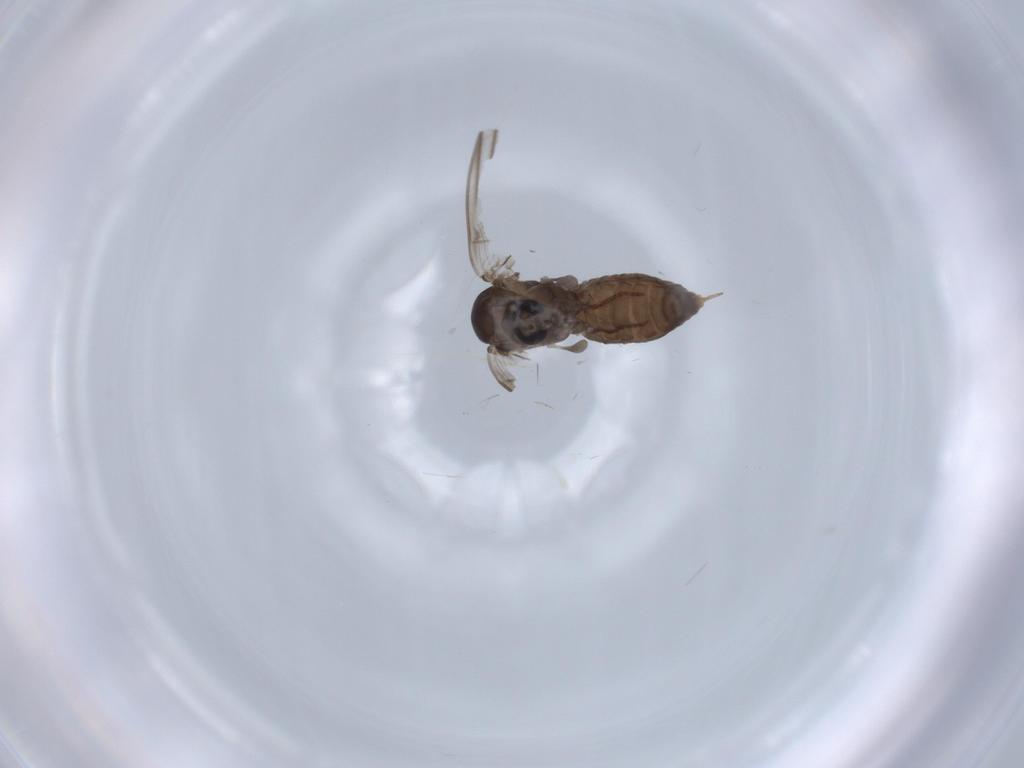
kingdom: Animalia
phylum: Arthropoda
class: Insecta
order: Diptera
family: Psychodidae
